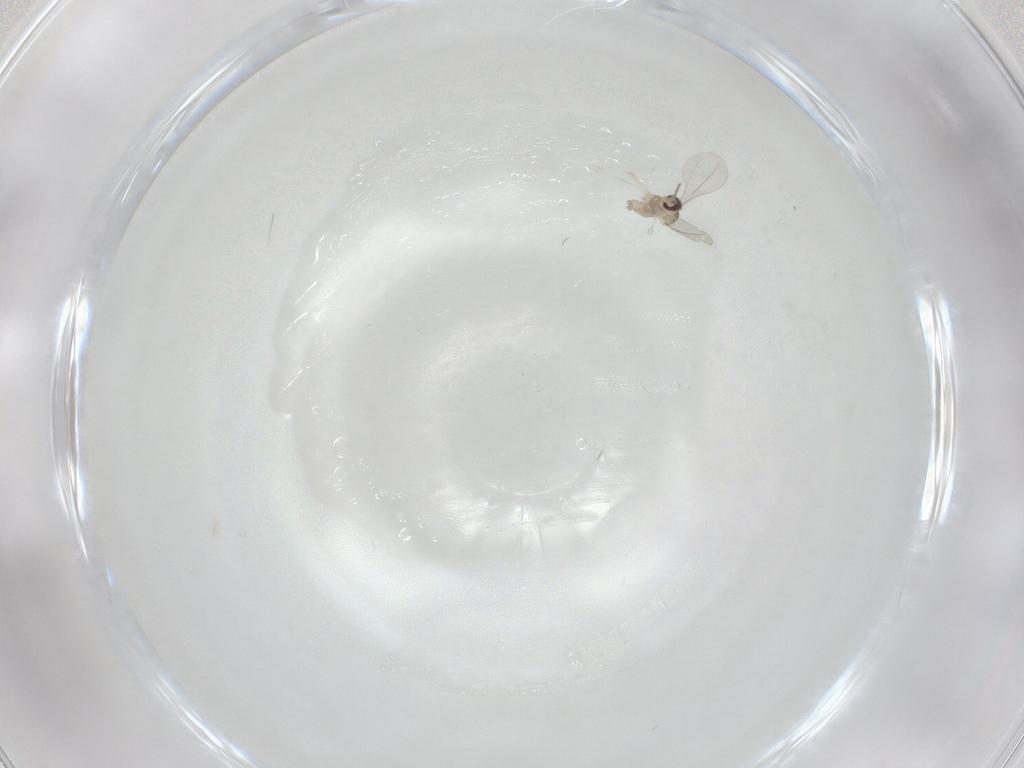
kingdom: Animalia
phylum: Arthropoda
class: Insecta
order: Diptera
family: Cecidomyiidae
